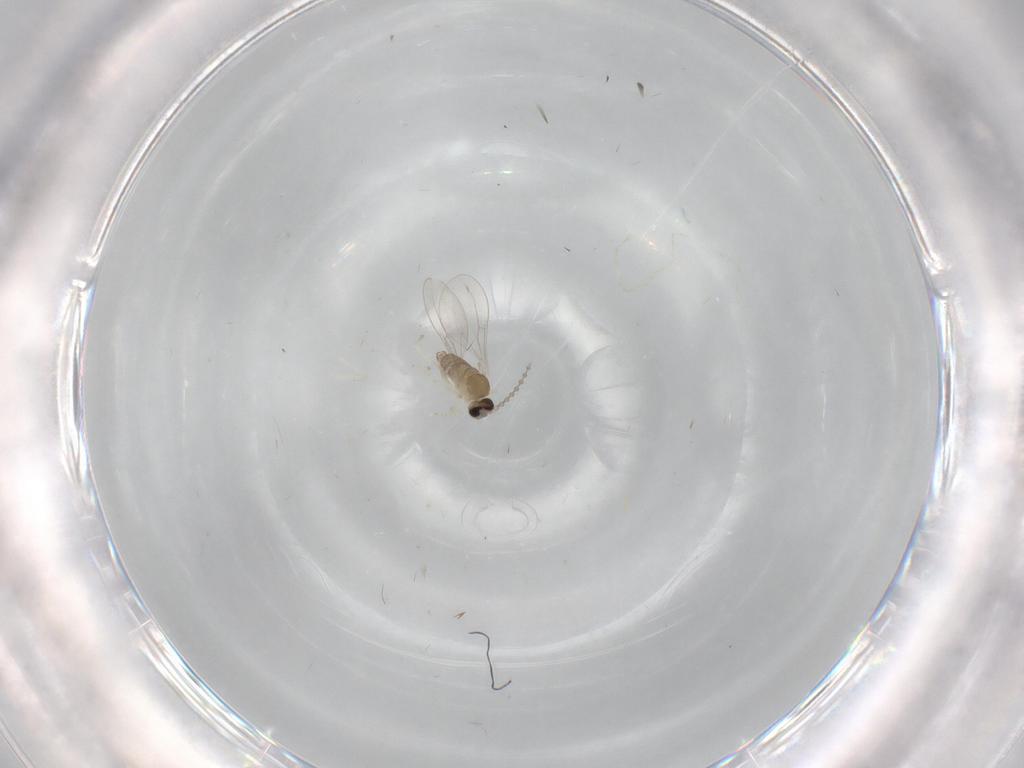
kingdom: Animalia
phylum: Arthropoda
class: Insecta
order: Diptera
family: Cecidomyiidae
